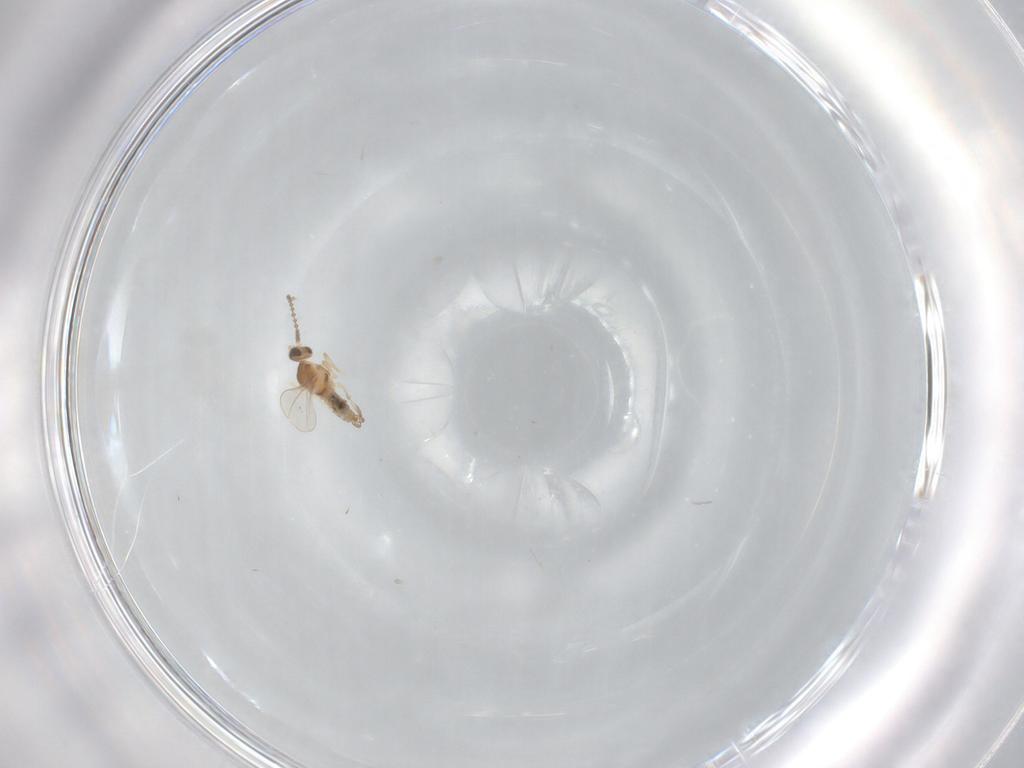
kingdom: Animalia
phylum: Arthropoda
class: Insecta
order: Diptera
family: Cecidomyiidae
